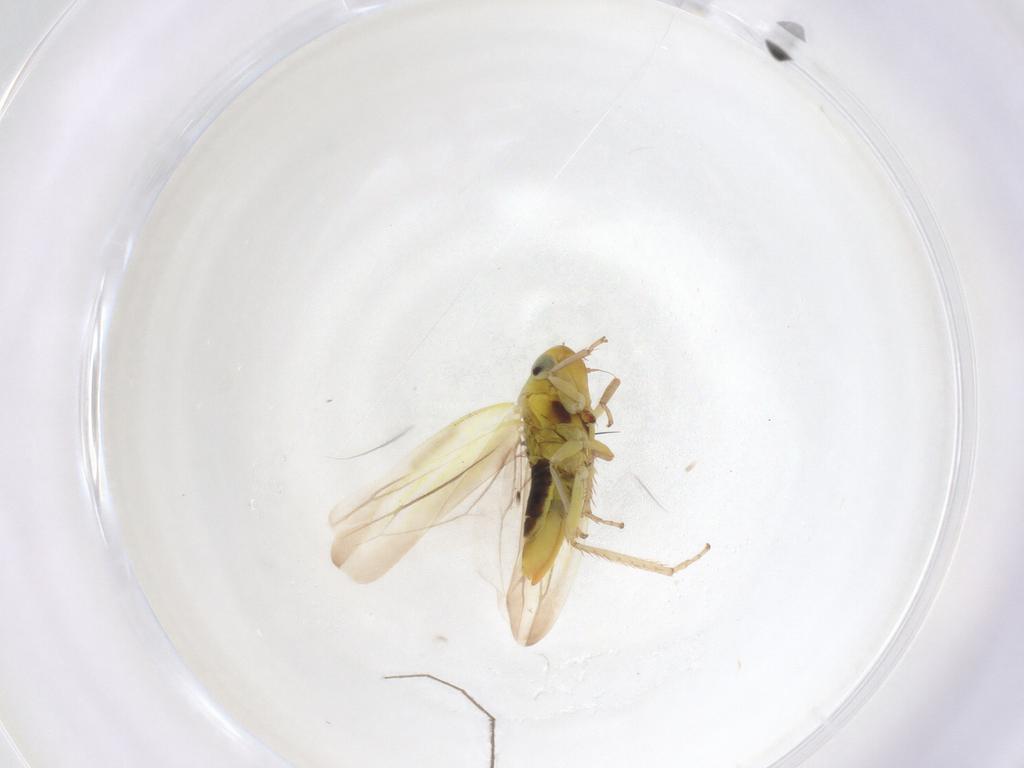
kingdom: Animalia
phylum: Arthropoda
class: Insecta
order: Hemiptera
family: Cicadellidae
